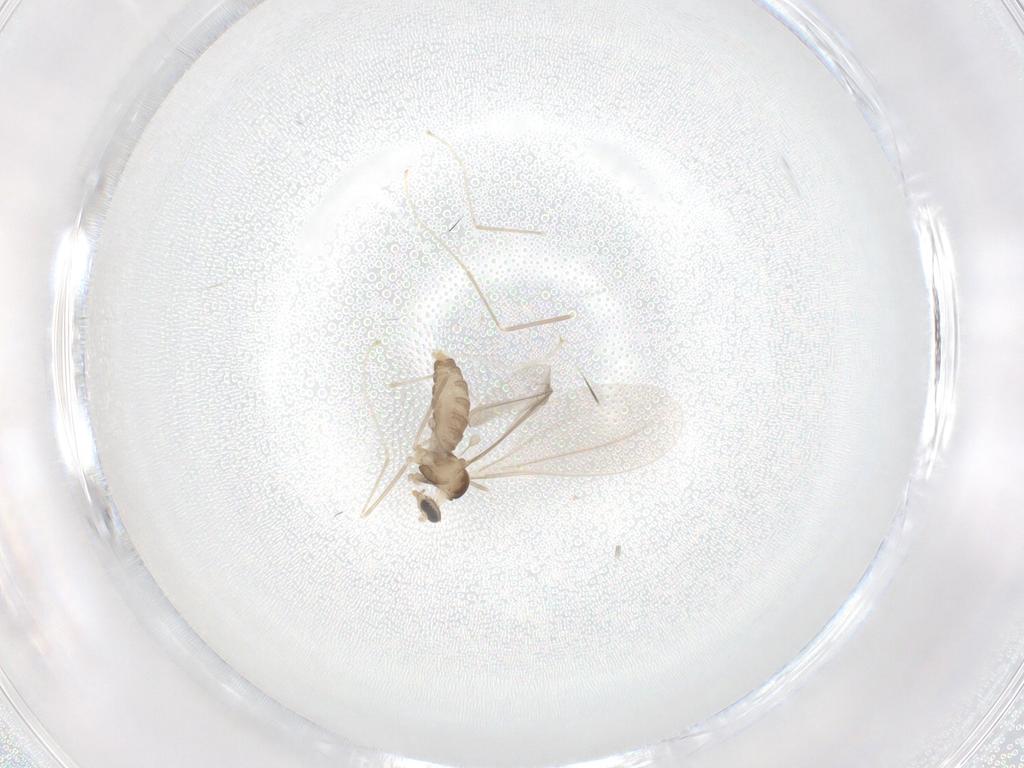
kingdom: Animalia
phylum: Arthropoda
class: Insecta
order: Diptera
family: Cecidomyiidae
